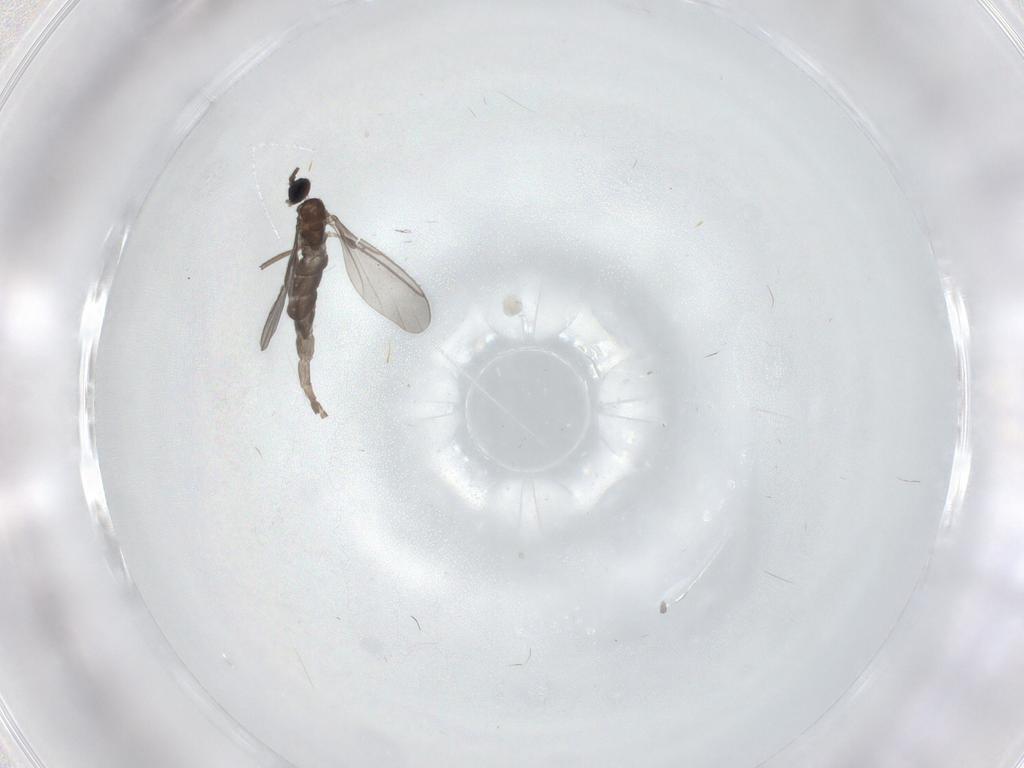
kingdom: Animalia
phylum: Arthropoda
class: Insecta
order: Diptera
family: Sciaridae
